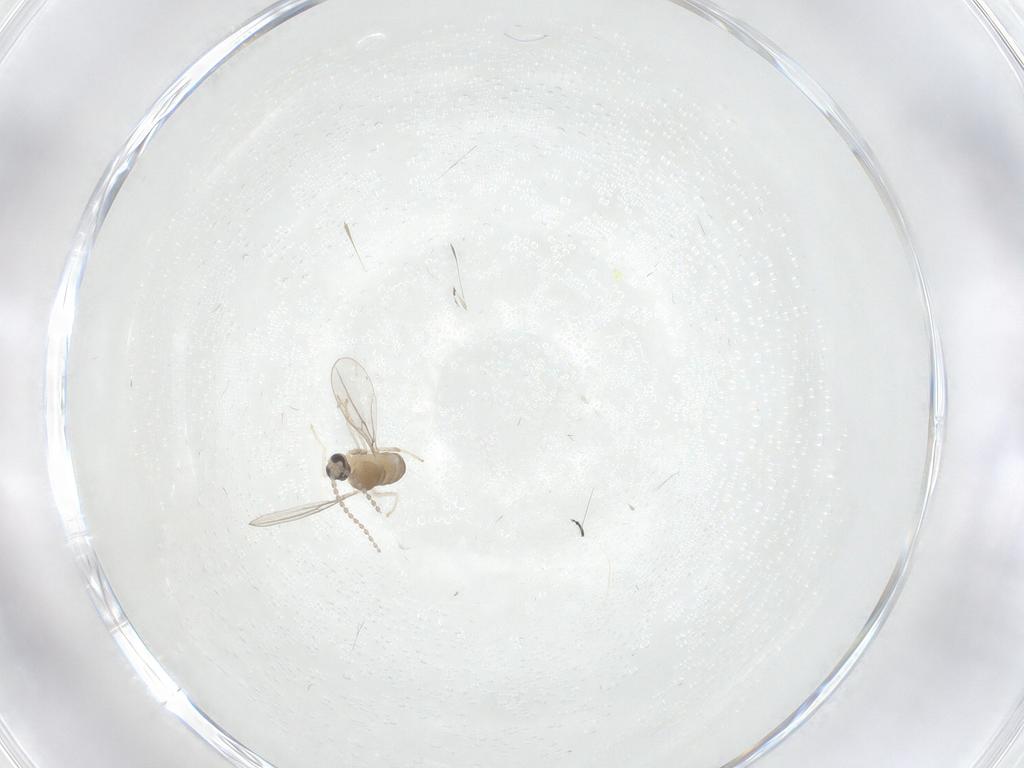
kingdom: Animalia
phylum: Arthropoda
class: Insecta
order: Diptera
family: Cecidomyiidae
